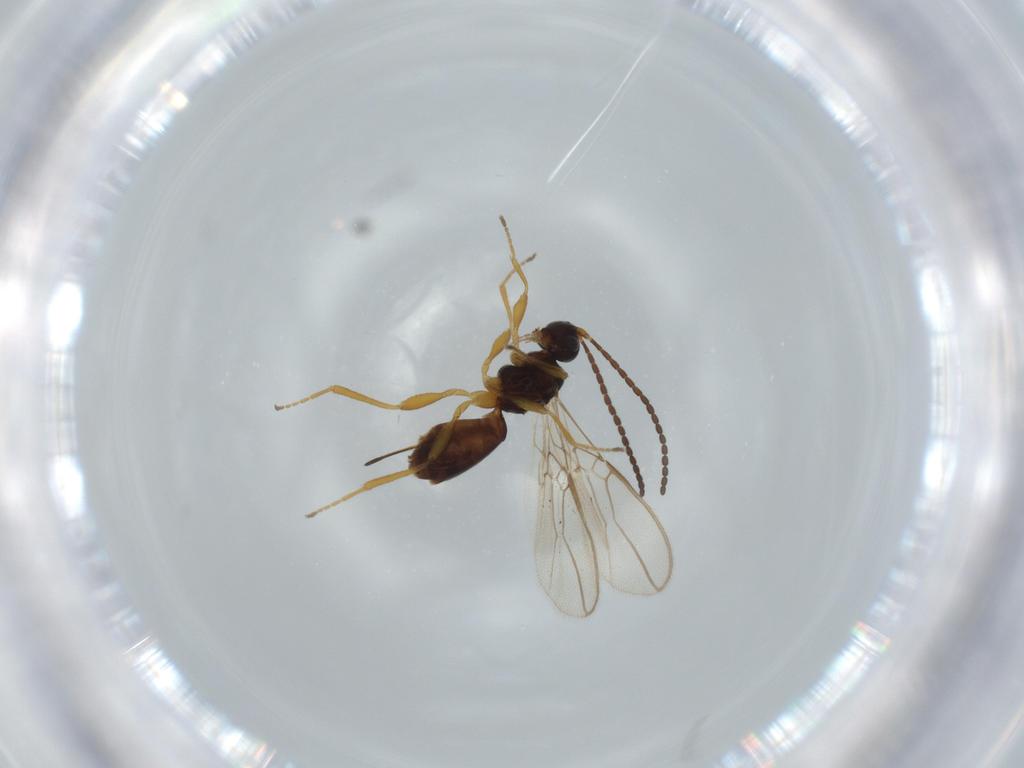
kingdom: Animalia
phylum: Arthropoda
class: Insecta
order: Hymenoptera
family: Braconidae
